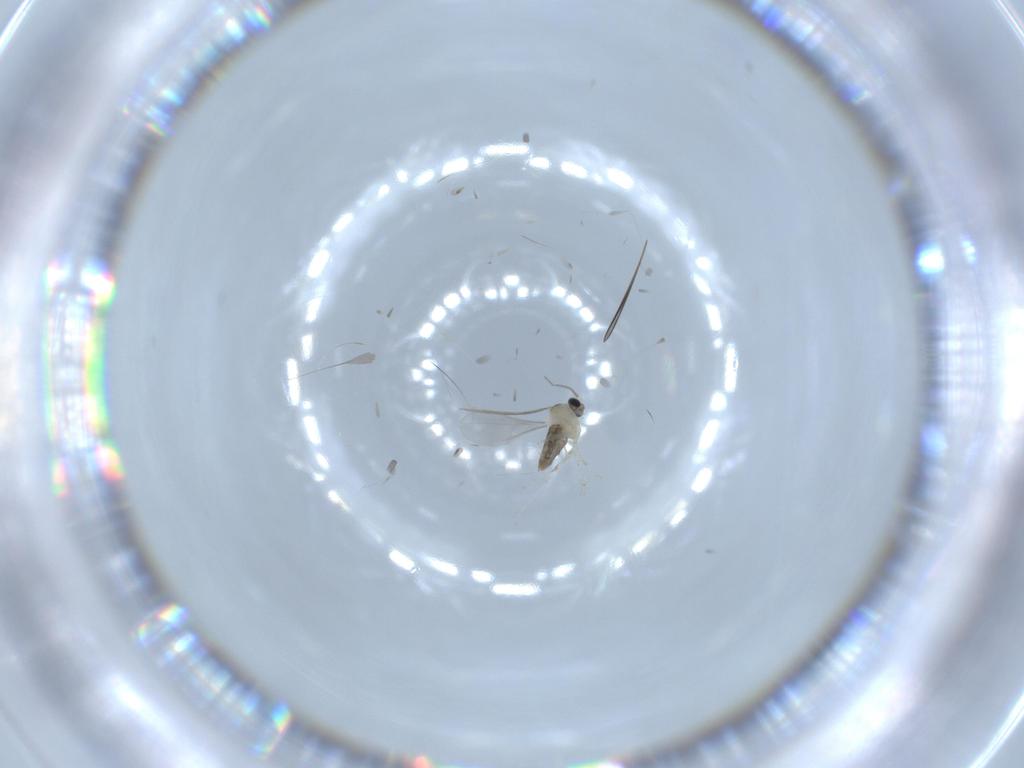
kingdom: Animalia
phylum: Arthropoda
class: Insecta
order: Diptera
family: Cecidomyiidae
